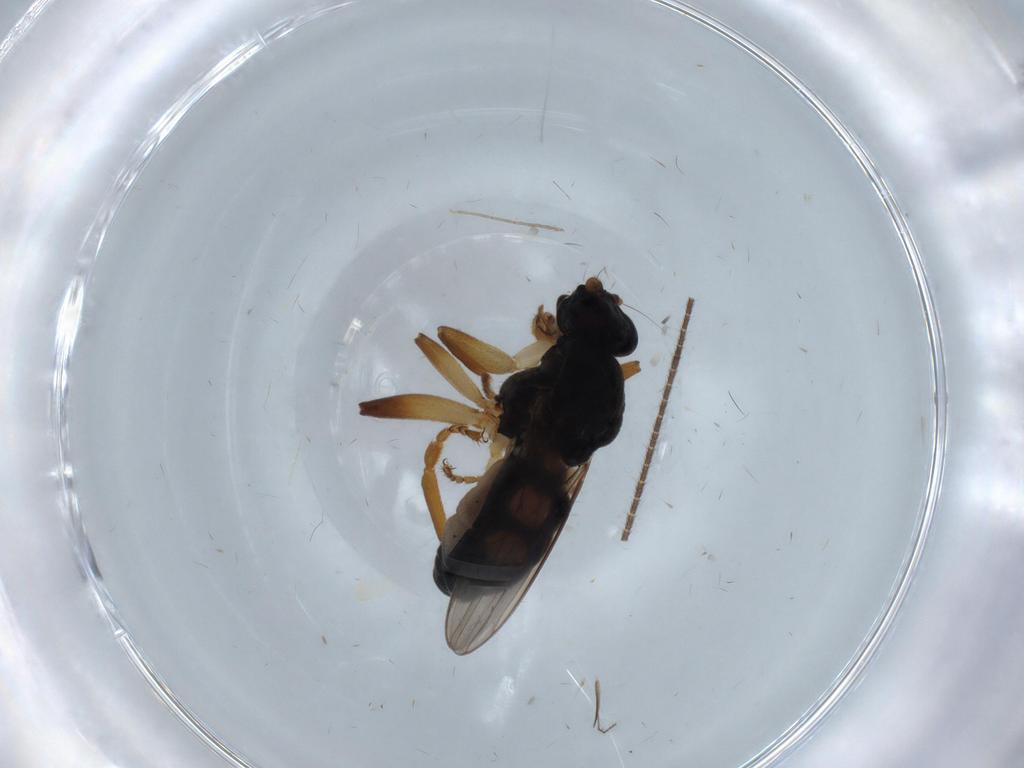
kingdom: Animalia
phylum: Arthropoda
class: Insecta
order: Diptera
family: Cecidomyiidae
